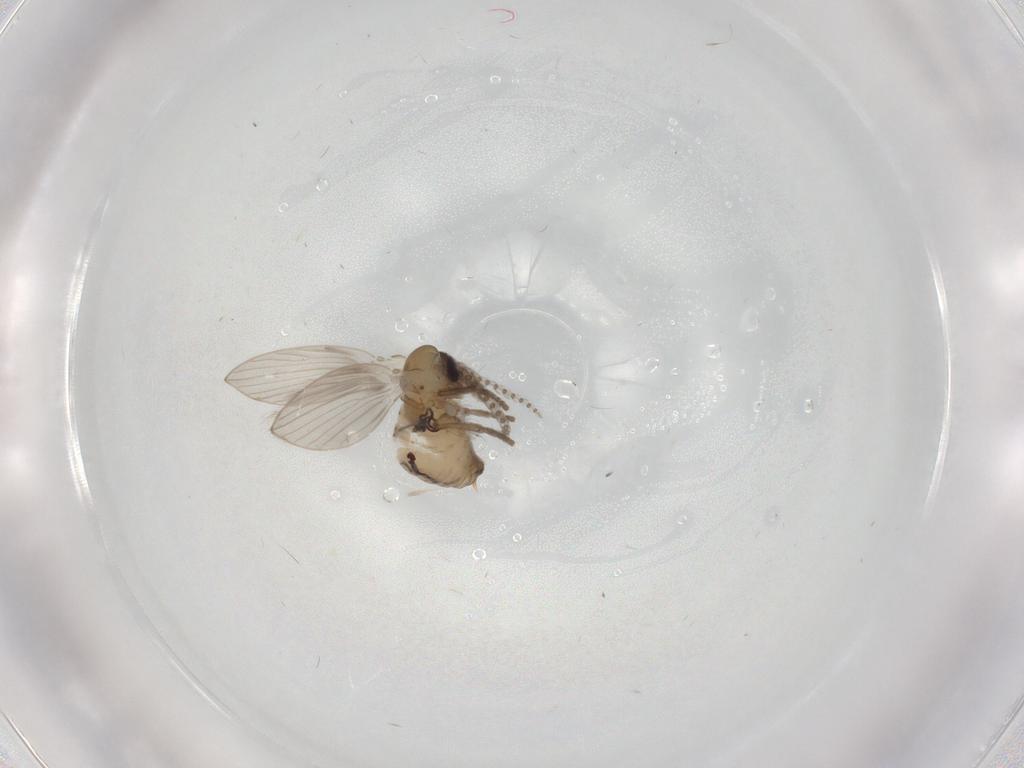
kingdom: Animalia
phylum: Arthropoda
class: Insecta
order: Diptera
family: Psychodidae
